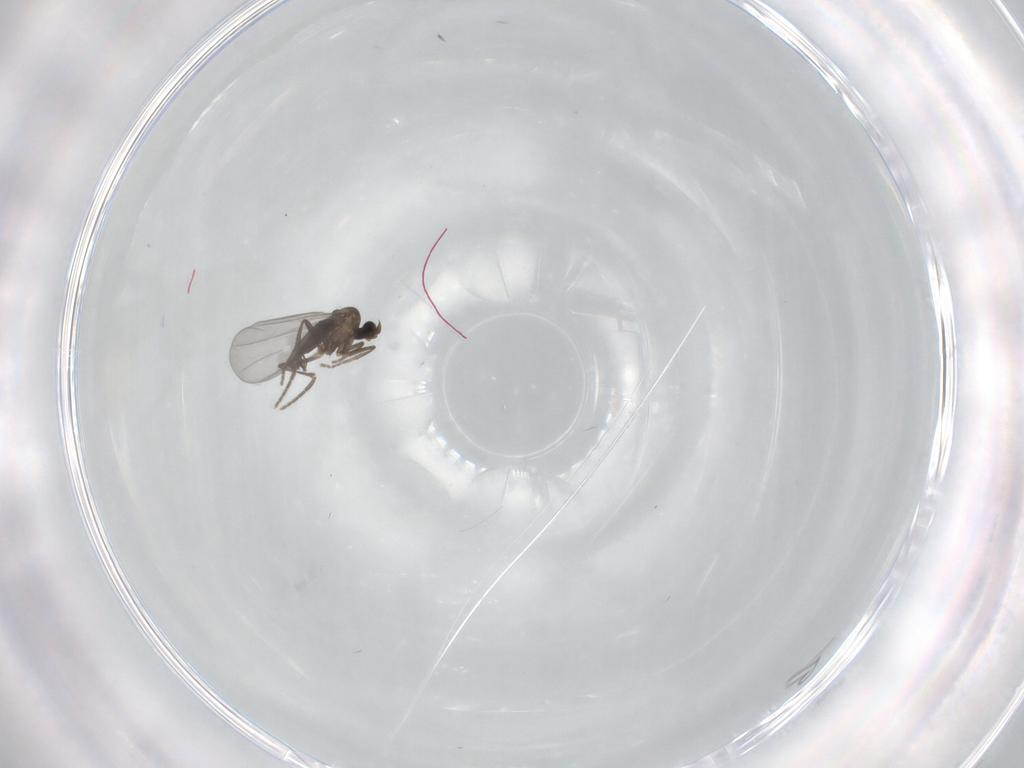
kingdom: Animalia
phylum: Arthropoda
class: Insecta
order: Diptera
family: Phoridae
